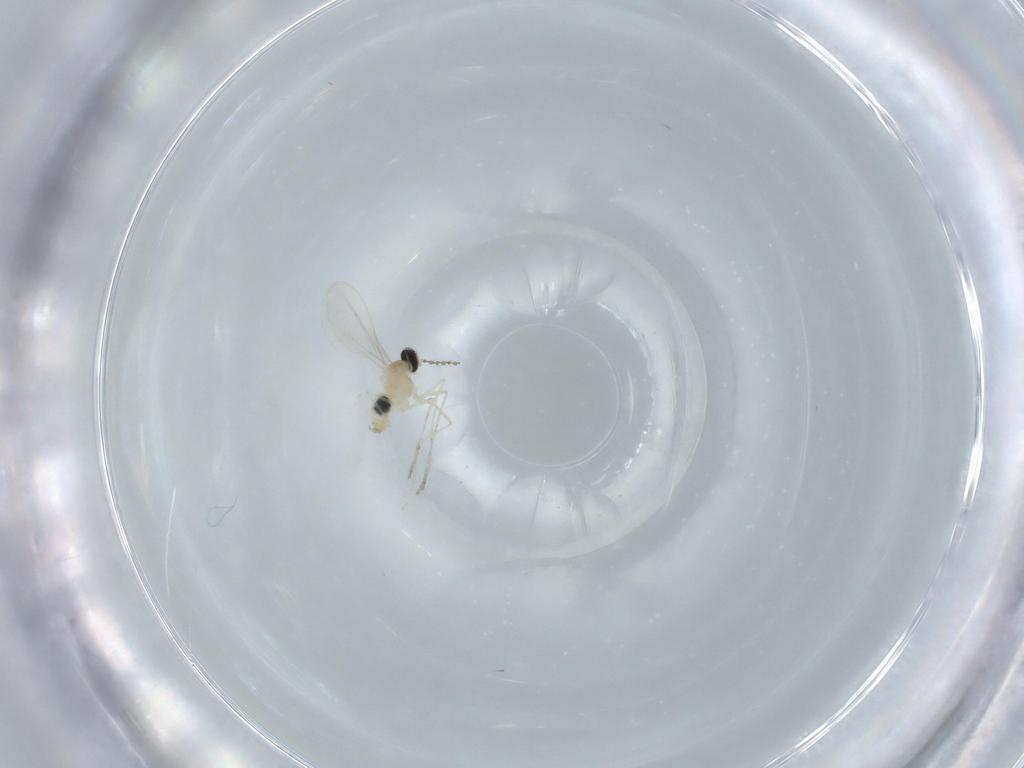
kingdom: Animalia
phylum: Arthropoda
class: Insecta
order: Diptera
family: Cecidomyiidae
